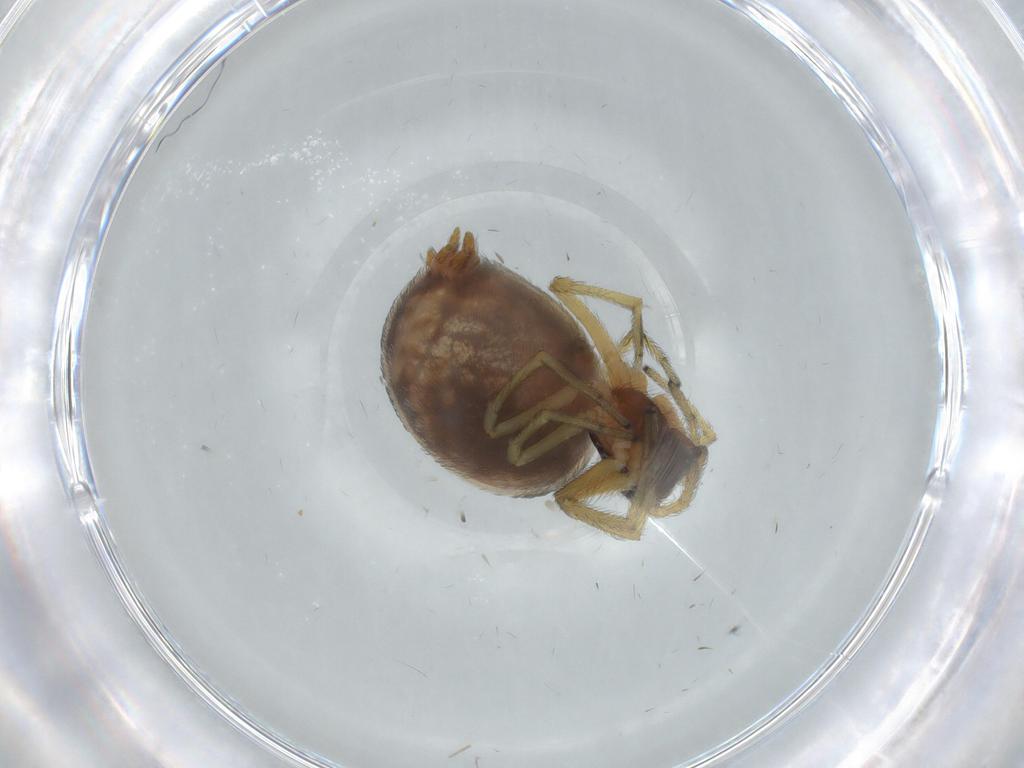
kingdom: Animalia
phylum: Arthropoda
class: Arachnida
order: Araneae
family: Dictynidae
